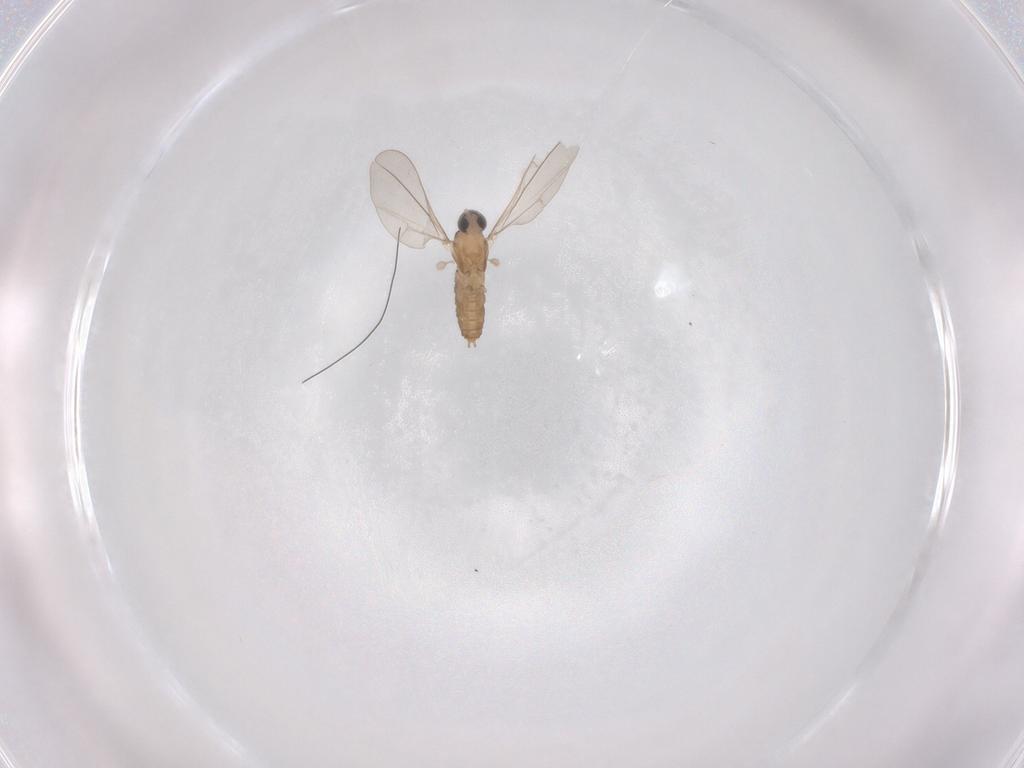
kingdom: Animalia
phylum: Arthropoda
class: Insecta
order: Diptera
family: Cecidomyiidae
